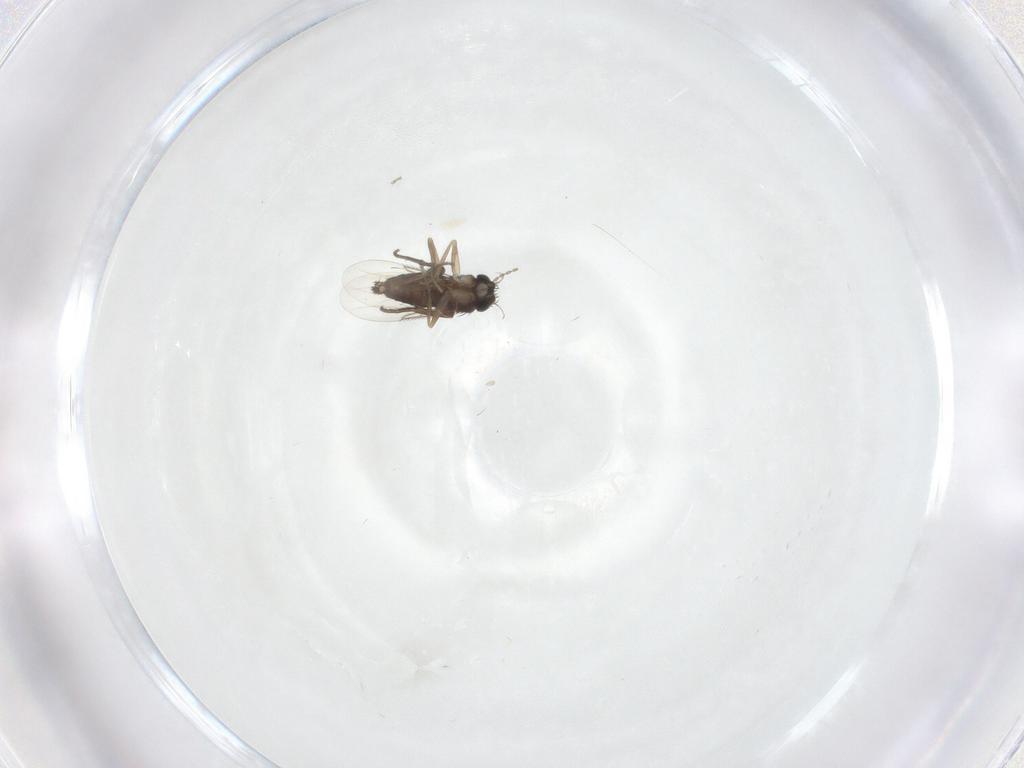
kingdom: Animalia
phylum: Arthropoda
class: Insecta
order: Diptera
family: Phoridae
